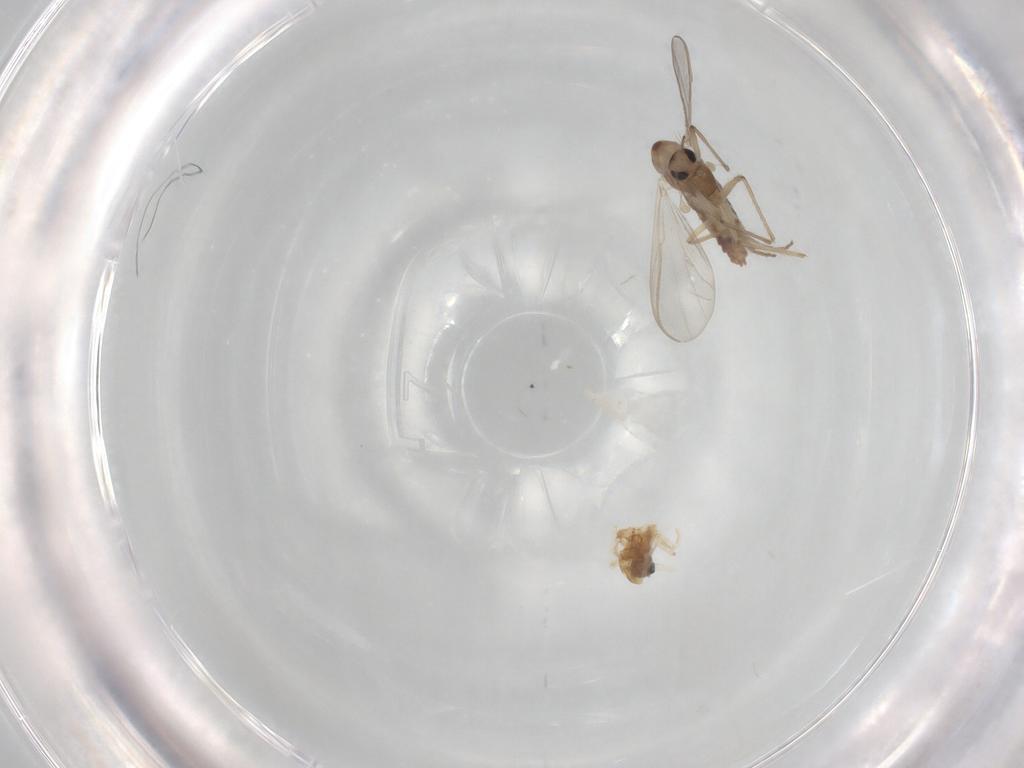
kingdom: Animalia
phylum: Arthropoda
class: Insecta
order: Diptera
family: Chironomidae
